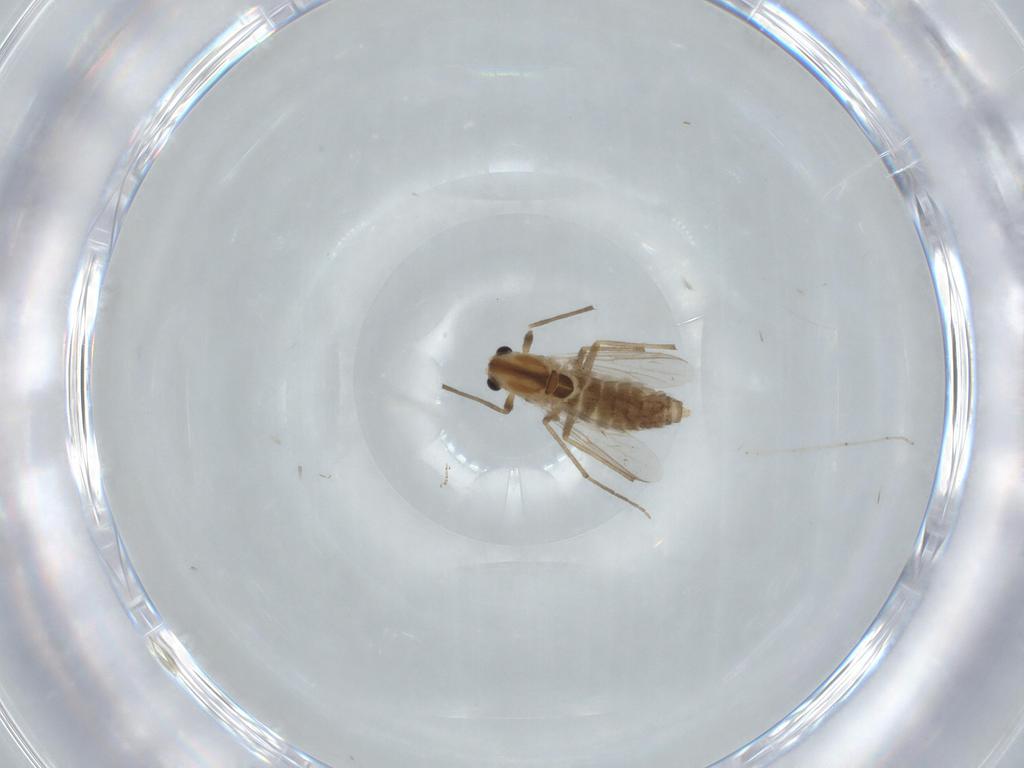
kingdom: Animalia
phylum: Arthropoda
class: Insecta
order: Diptera
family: Chironomidae
